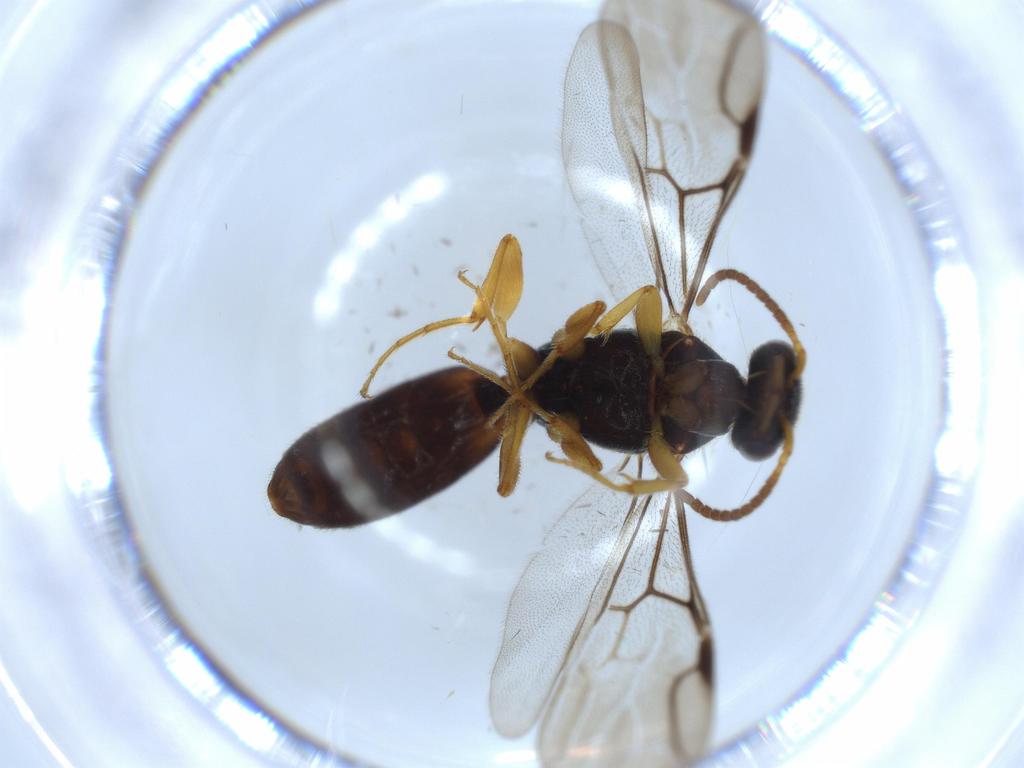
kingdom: Animalia
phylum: Arthropoda
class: Insecta
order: Hymenoptera
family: Bethylidae
